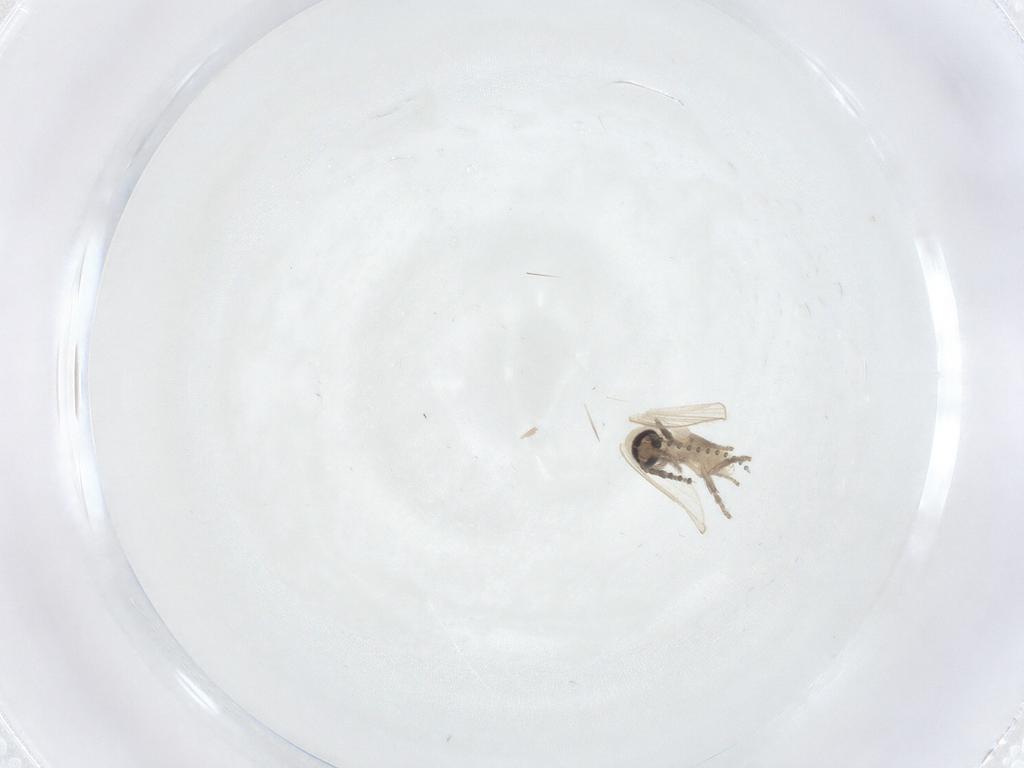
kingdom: Animalia
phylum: Arthropoda
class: Insecta
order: Diptera
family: Psychodidae
